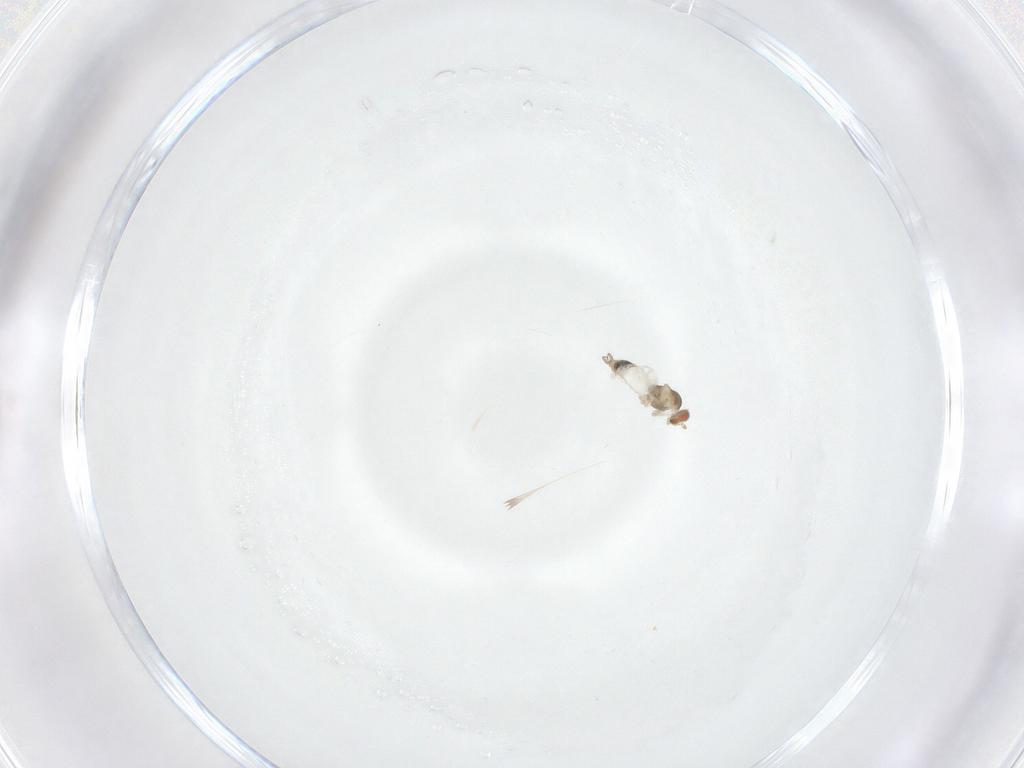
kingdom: Animalia
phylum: Arthropoda
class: Insecta
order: Diptera
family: Cecidomyiidae
